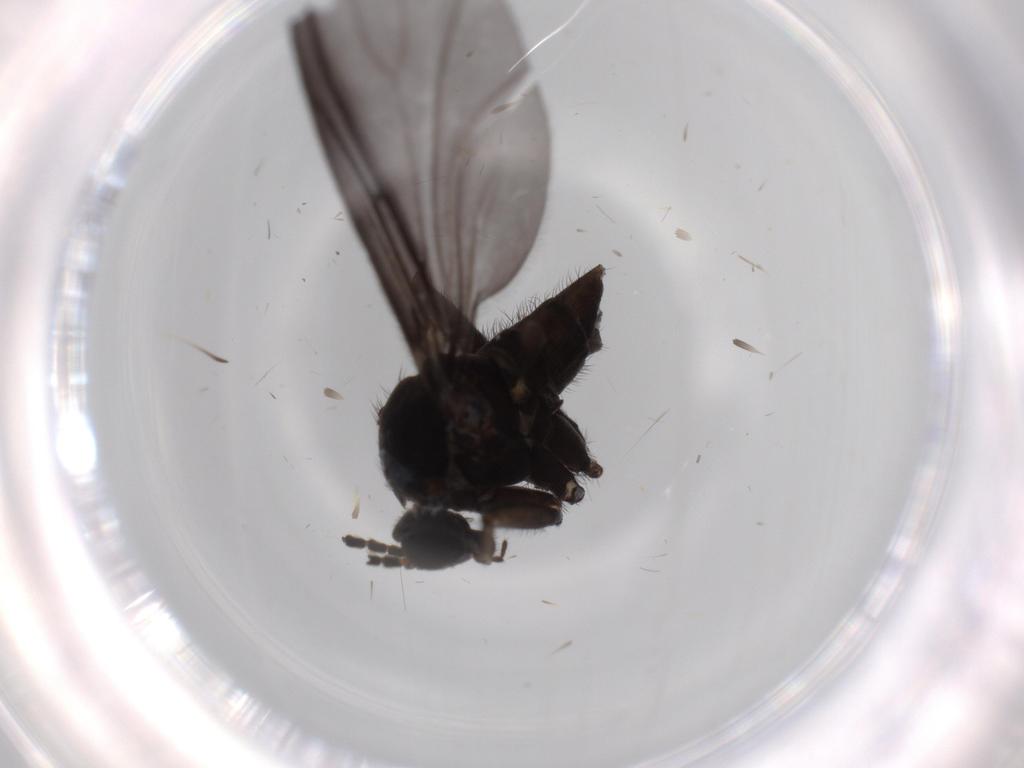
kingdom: Animalia
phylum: Arthropoda
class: Insecta
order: Diptera
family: Sciaridae
